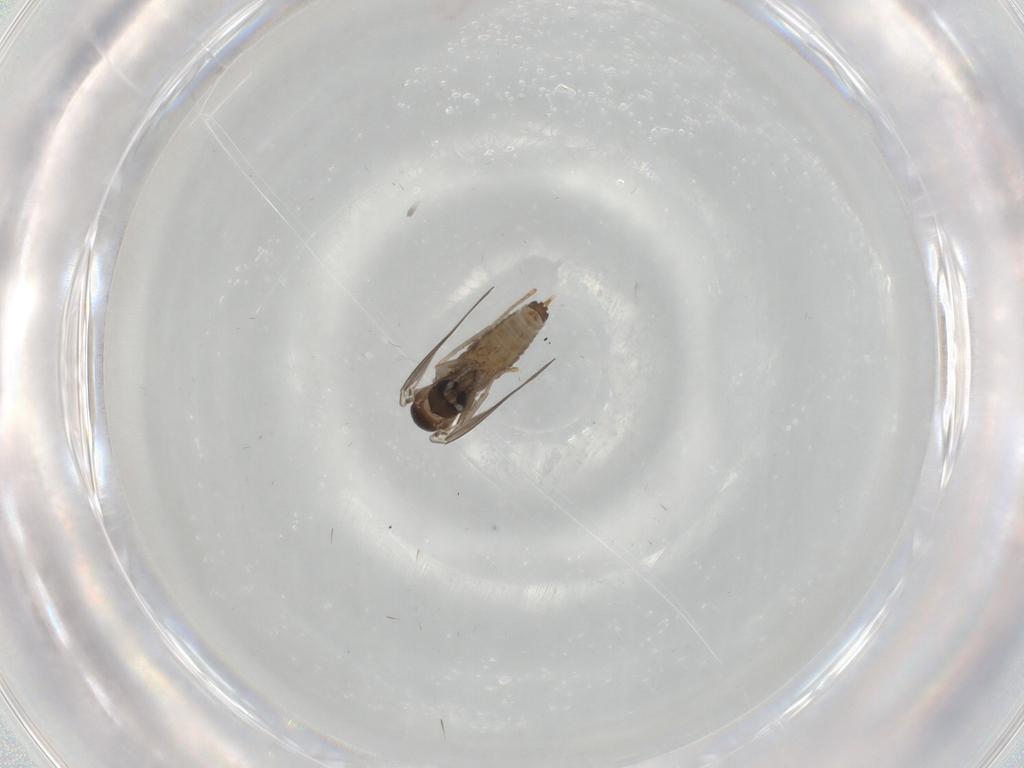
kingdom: Animalia
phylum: Arthropoda
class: Insecta
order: Diptera
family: Psychodidae
